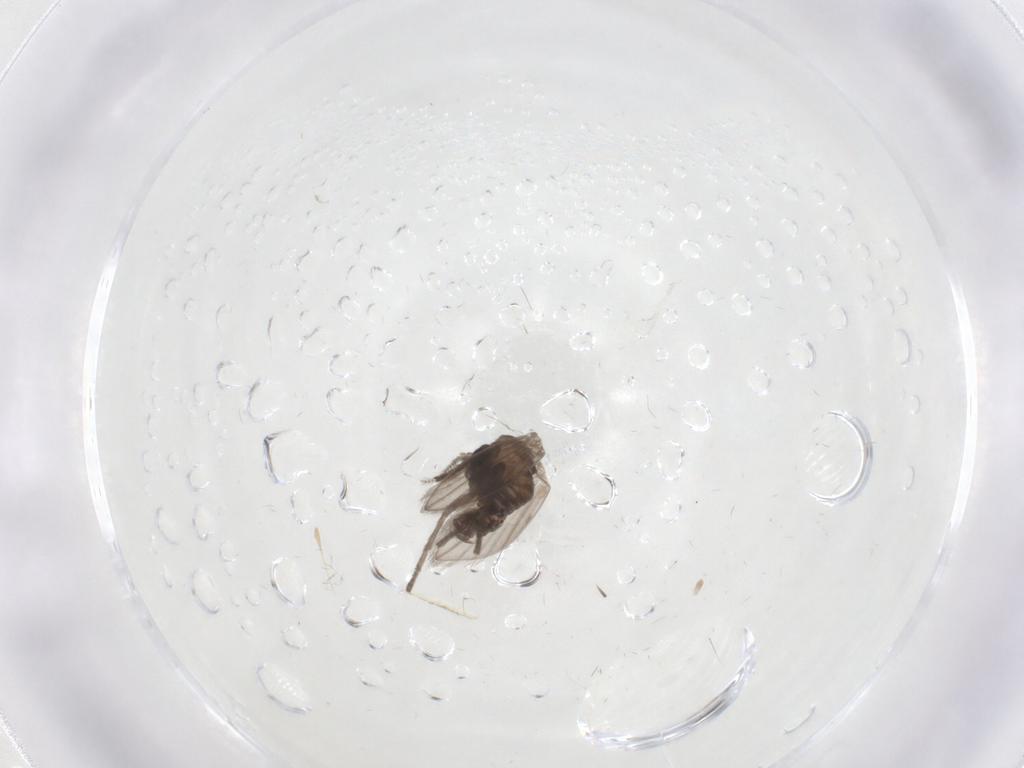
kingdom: Animalia
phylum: Arthropoda
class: Insecta
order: Diptera
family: Psychodidae
